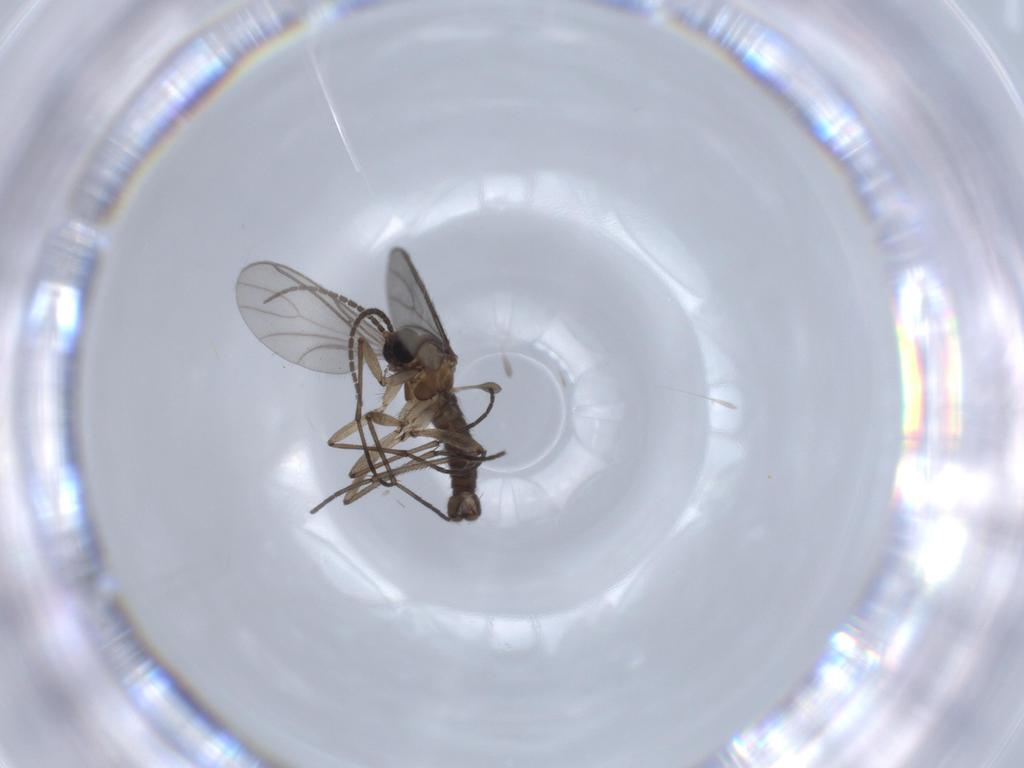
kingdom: Animalia
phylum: Arthropoda
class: Insecta
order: Diptera
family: Sciaridae
